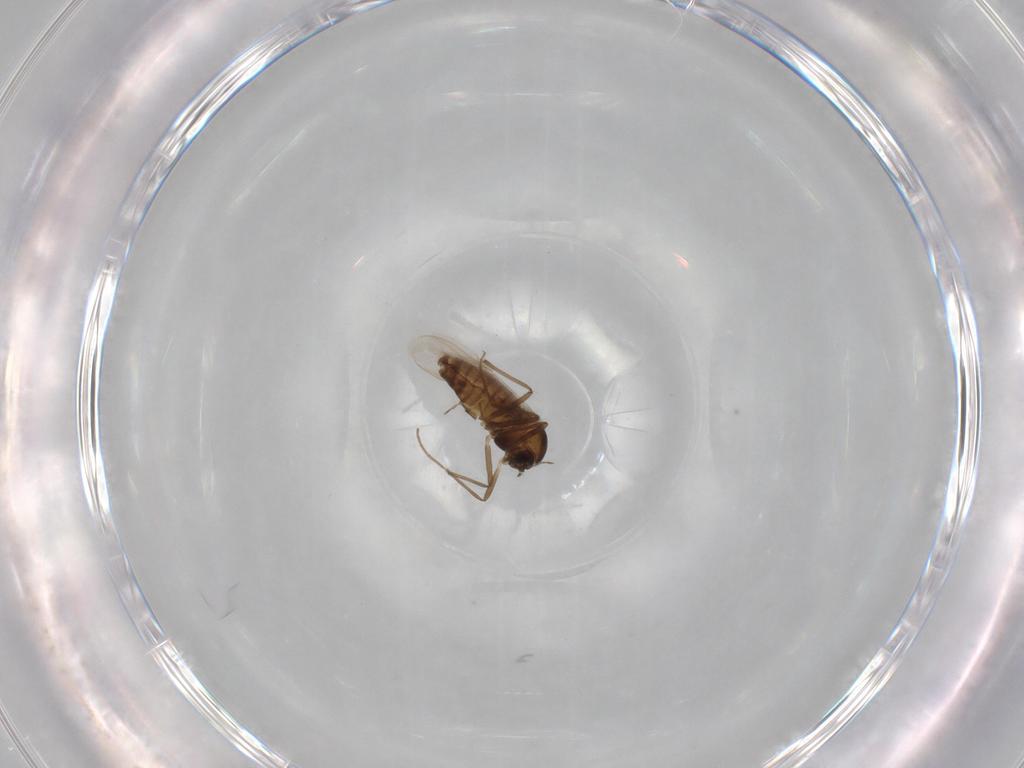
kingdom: Animalia
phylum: Arthropoda
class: Insecta
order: Diptera
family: Chironomidae
